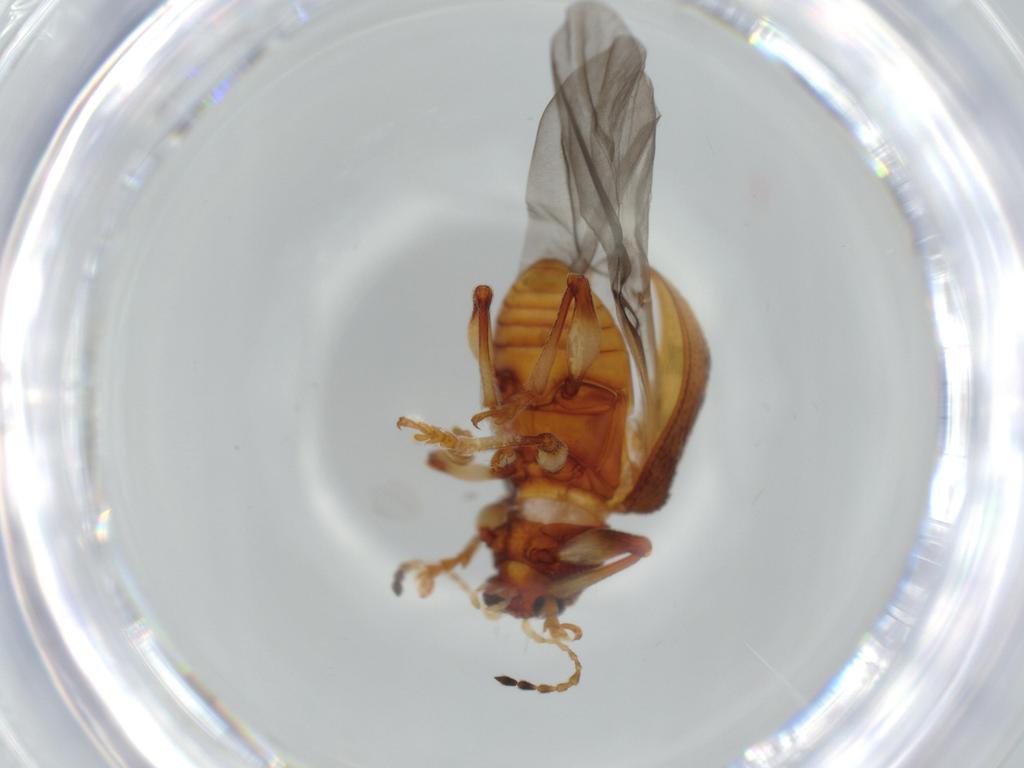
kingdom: Animalia
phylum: Arthropoda
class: Insecta
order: Coleoptera
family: Chrysomelidae
